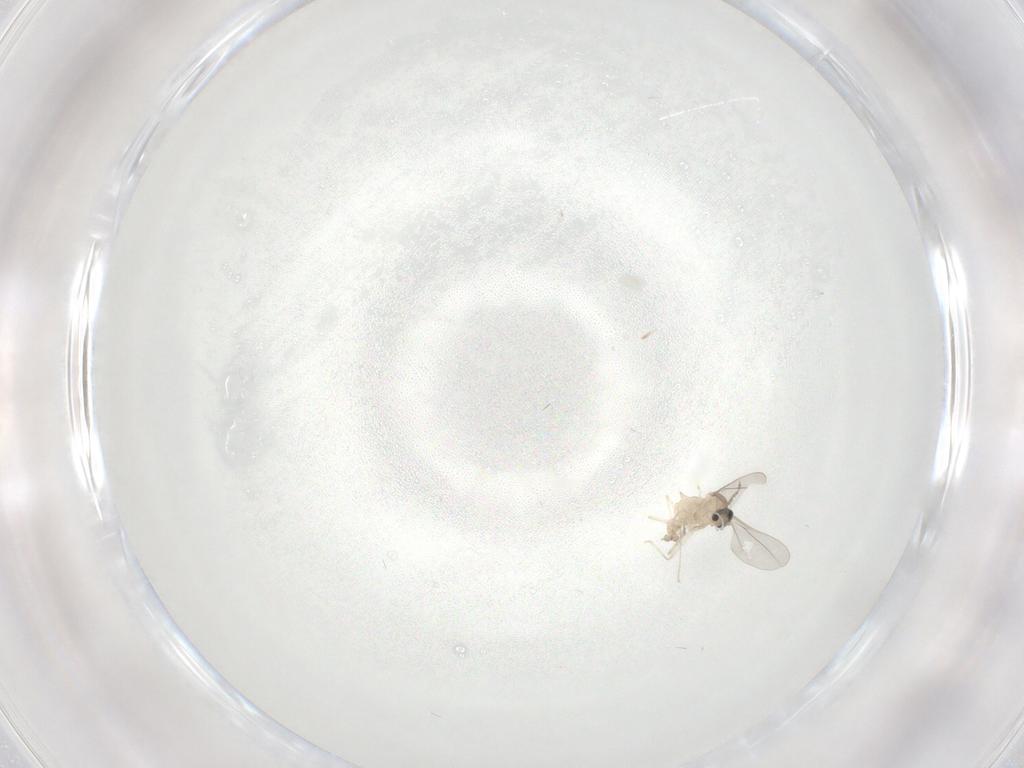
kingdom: Animalia
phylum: Arthropoda
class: Insecta
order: Diptera
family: Cecidomyiidae
